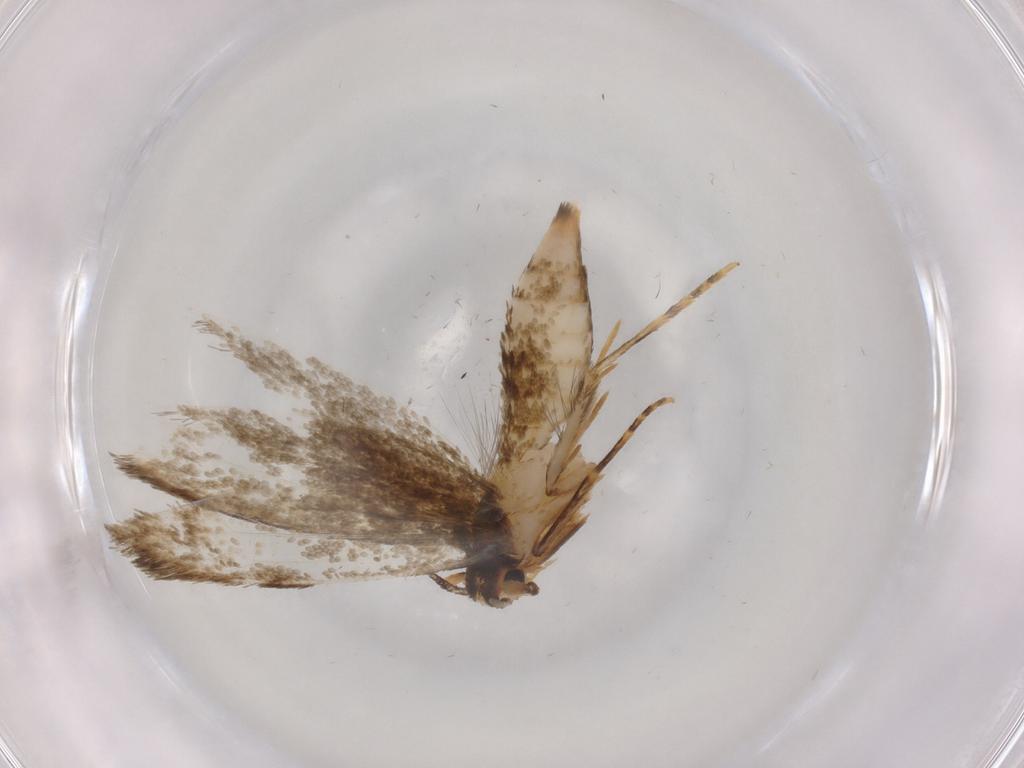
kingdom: Animalia
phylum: Arthropoda
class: Insecta
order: Lepidoptera
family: Tineidae
